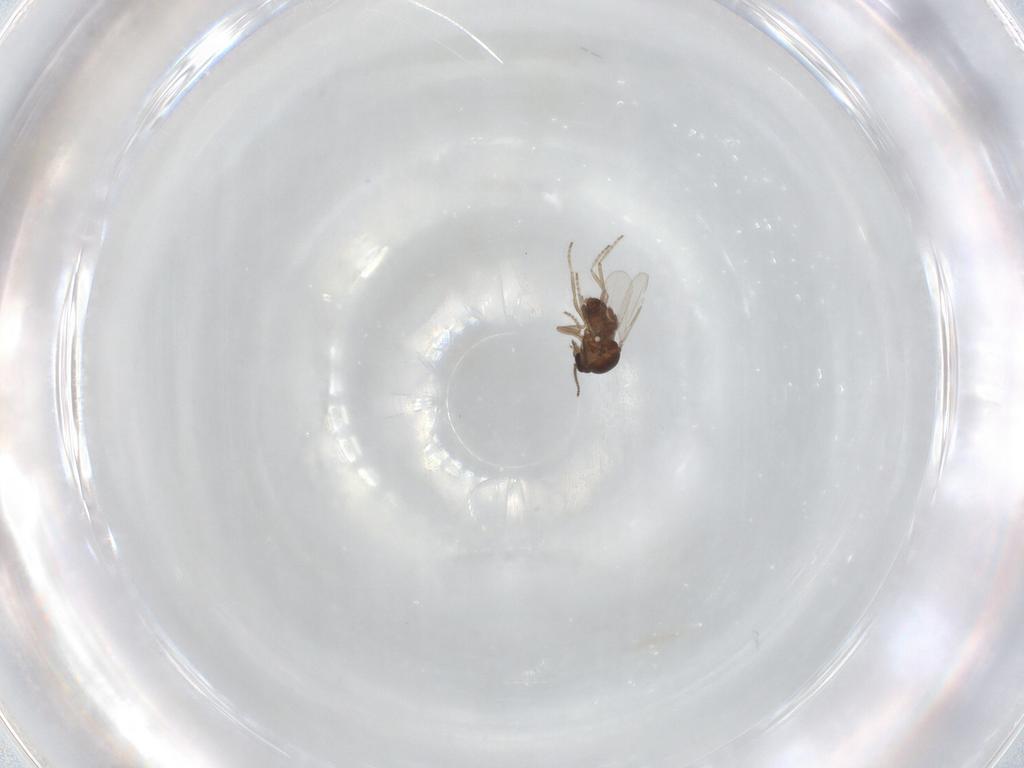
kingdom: Animalia
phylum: Arthropoda
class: Insecta
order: Diptera
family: Ceratopogonidae
